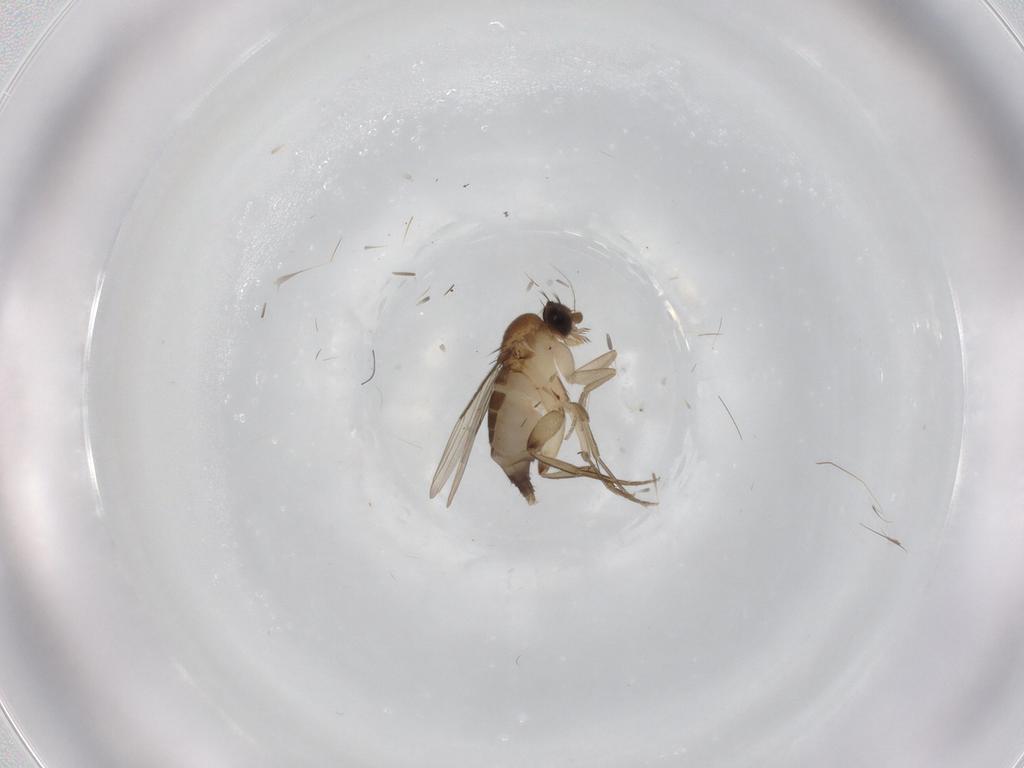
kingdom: Animalia
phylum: Arthropoda
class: Insecta
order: Diptera
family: Phoridae
